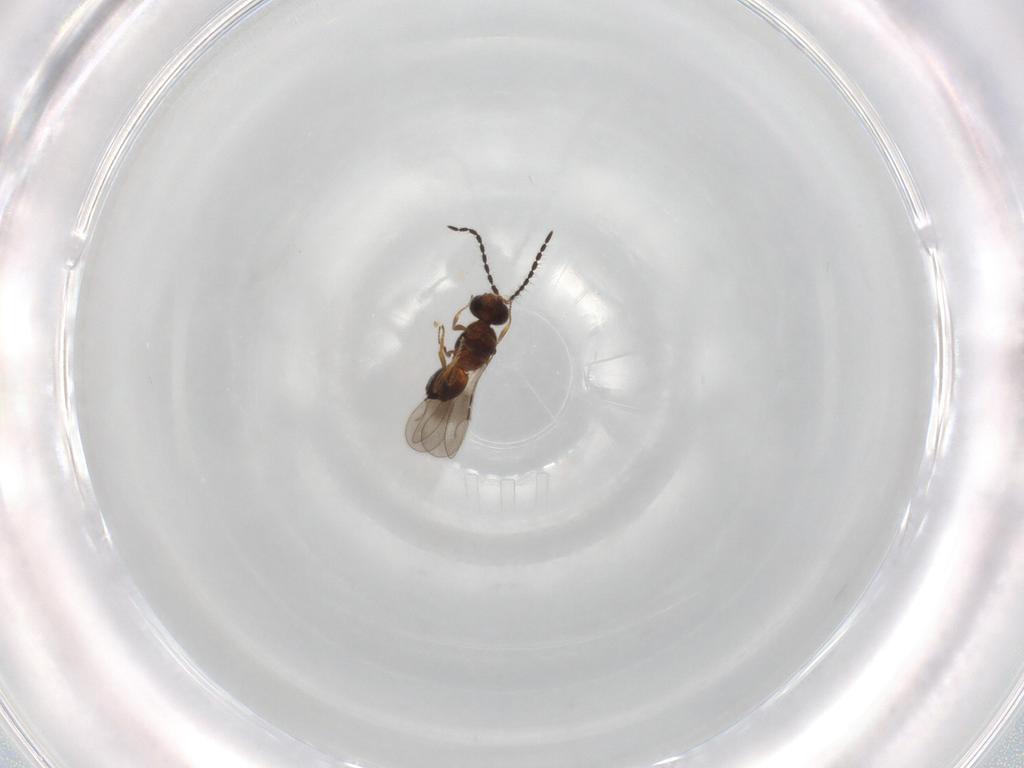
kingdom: Animalia
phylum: Arthropoda
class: Insecta
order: Hymenoptera
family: Ceraphronidae
